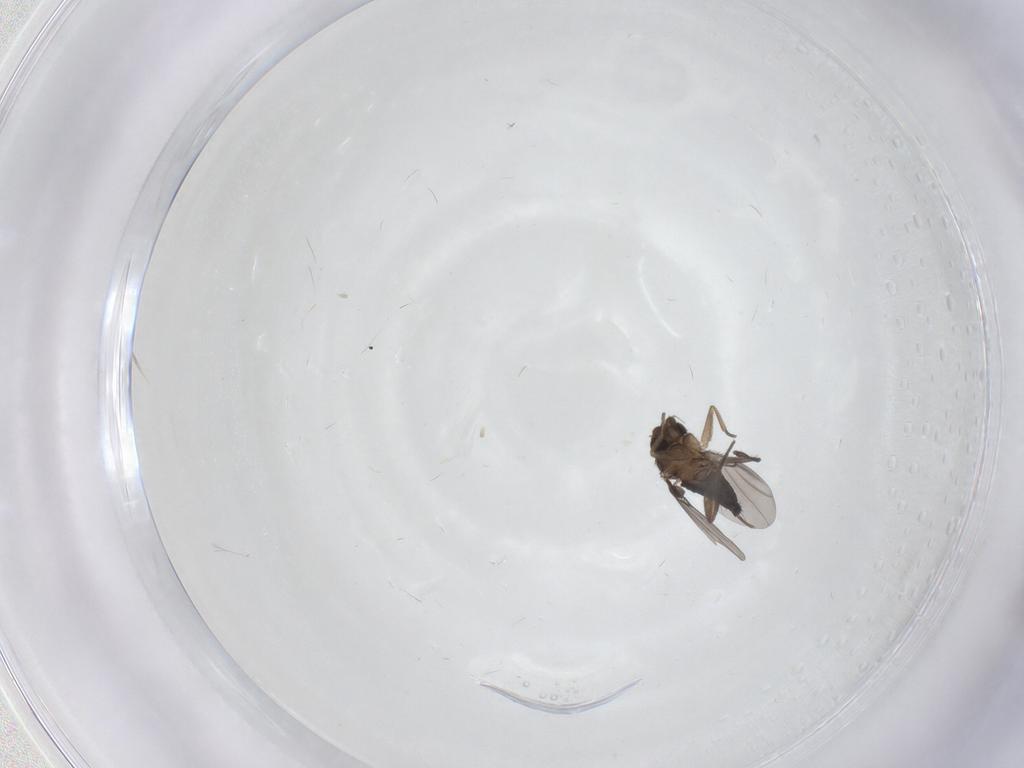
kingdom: Animalia
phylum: Arthropoda
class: Insecta
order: Diptera
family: Phoridae
